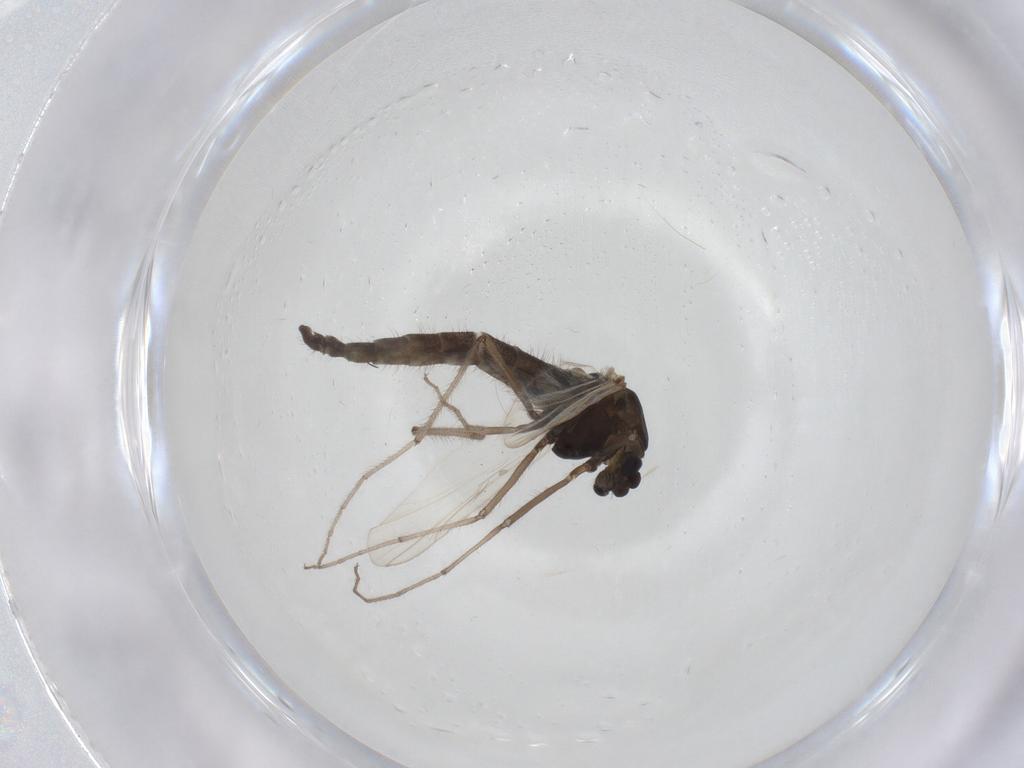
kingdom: Animalia
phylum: Arthropoda
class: Insecta
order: Diptera
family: Chironomidae
